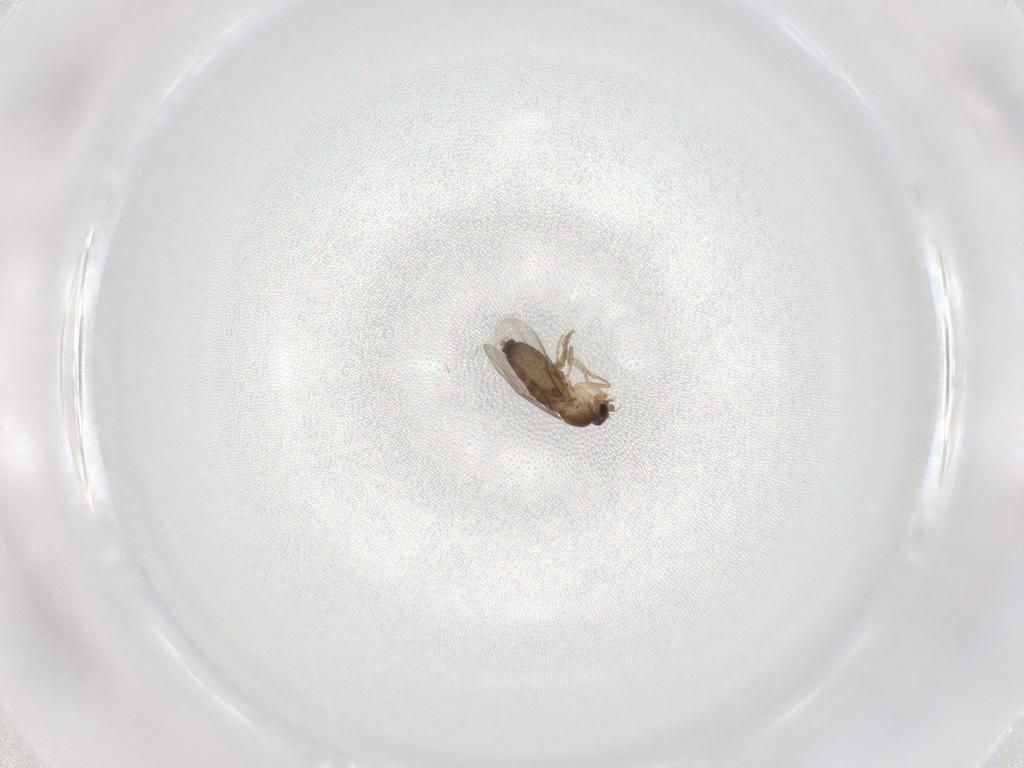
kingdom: Animalia
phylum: Arthropoda
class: Insecta
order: Diptera
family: Phoridae
